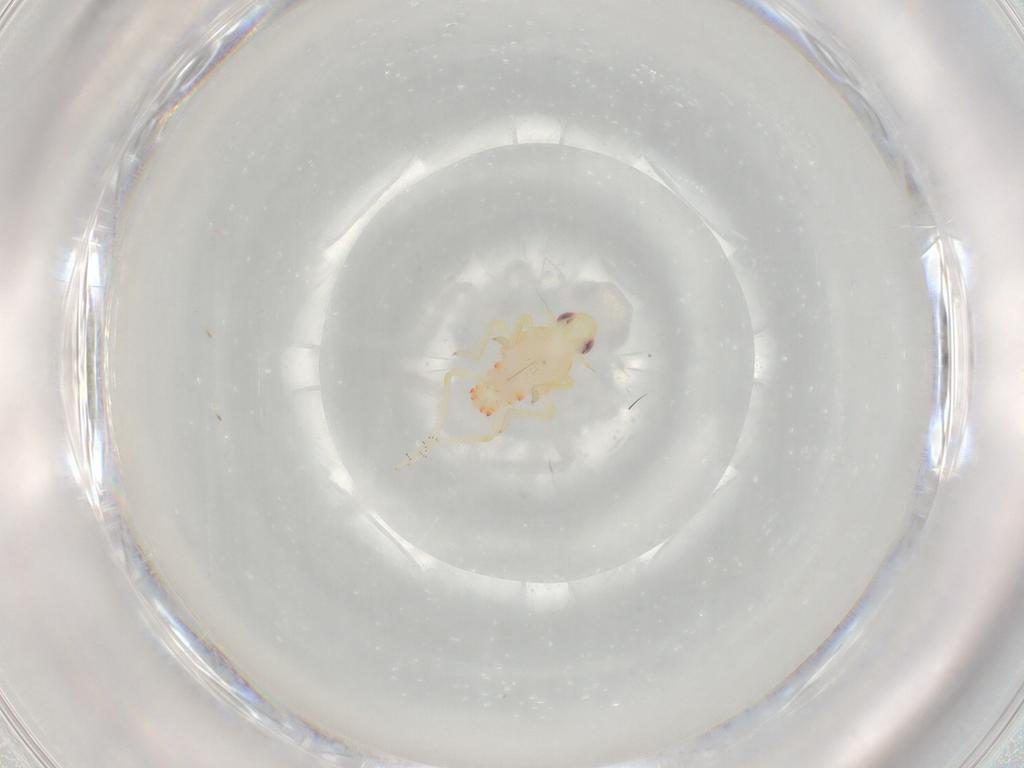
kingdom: Animalia
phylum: Arthropoda
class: Insecta
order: Hemiptera
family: Tropiduchidae
